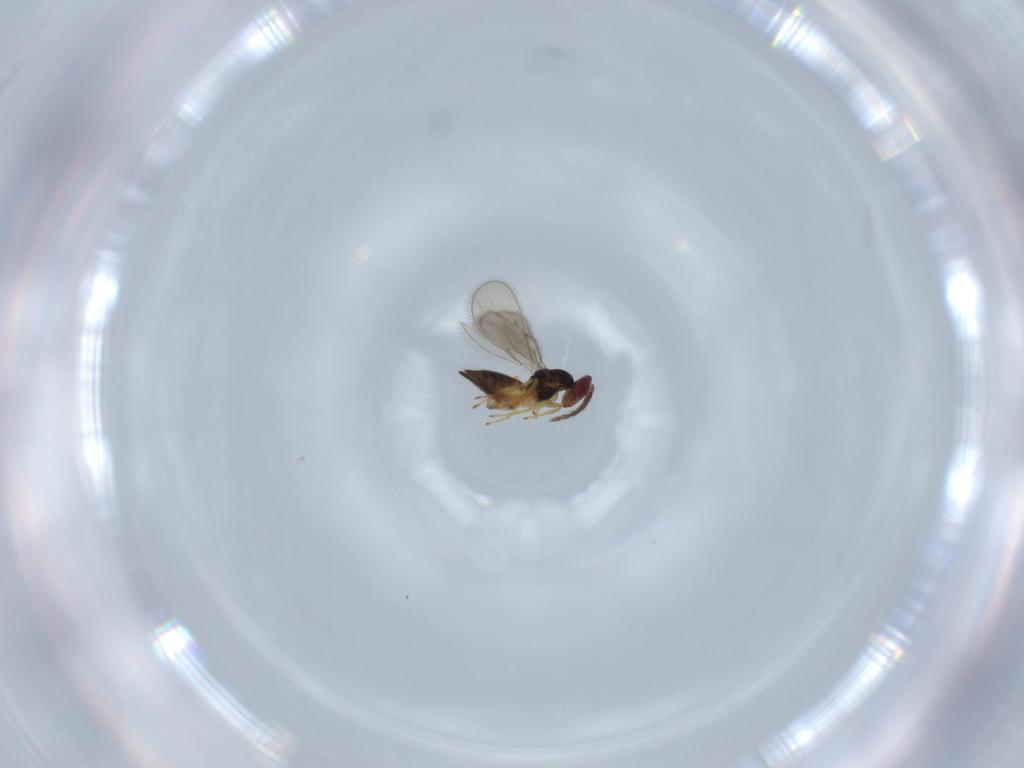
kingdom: Animalia
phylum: Arthropoda
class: Insecta
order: Hymenoptera
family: Eulophidae
